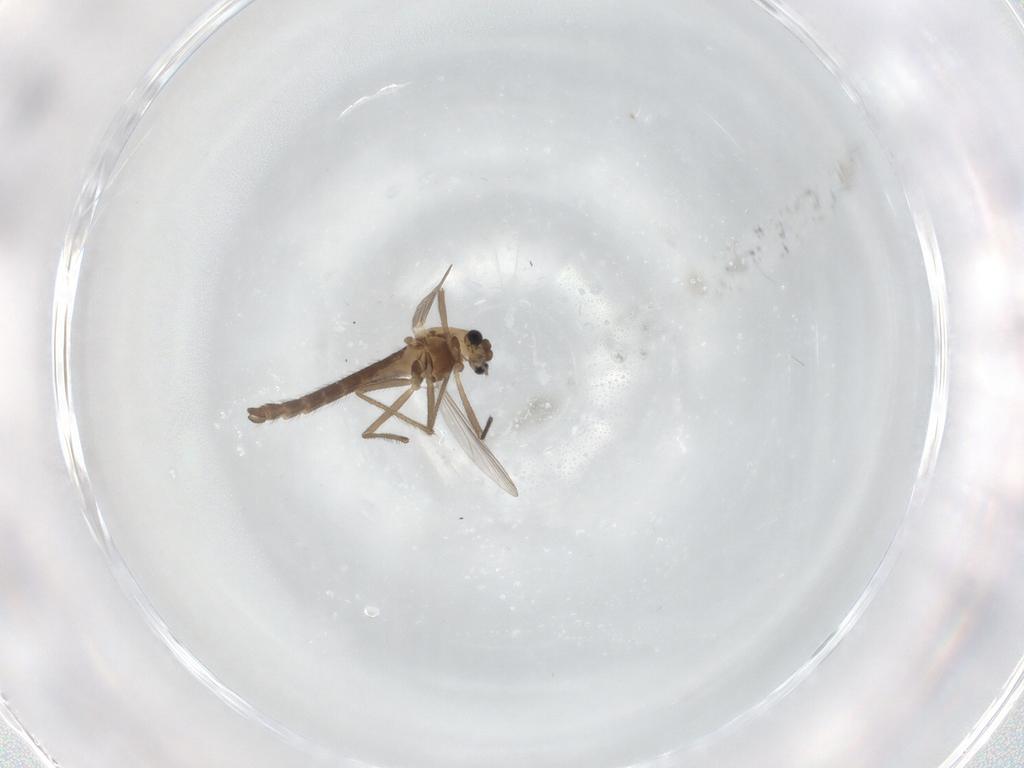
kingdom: Animalia
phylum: Arthropoda
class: Insecta
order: Diptera
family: Chironomidae
